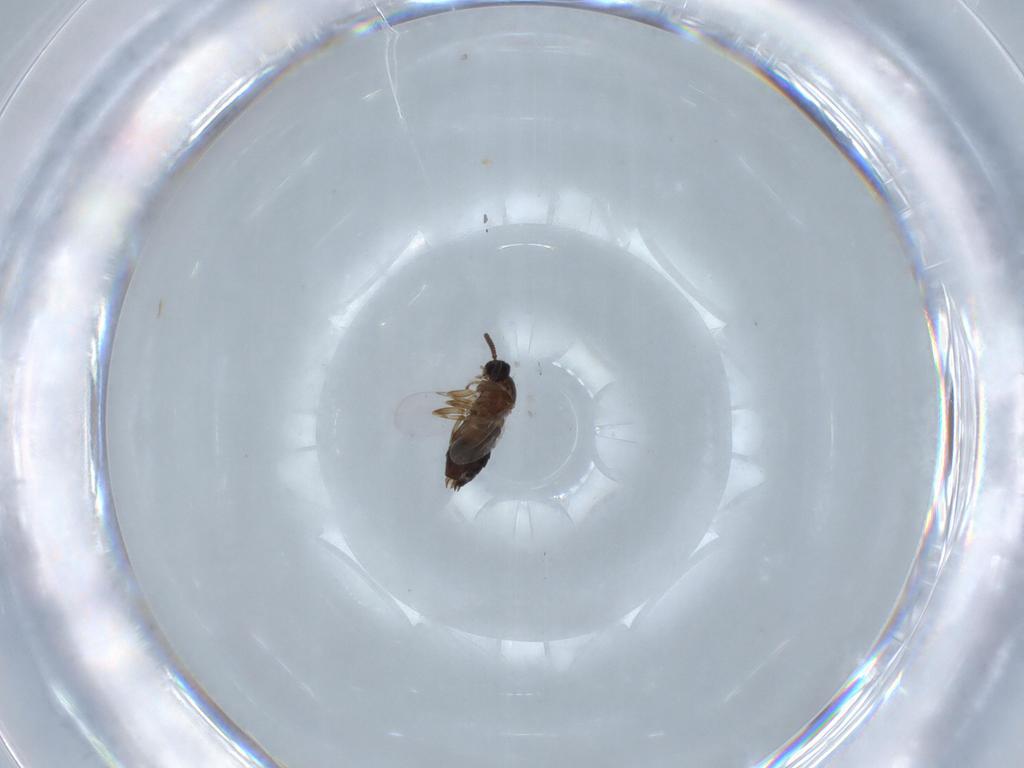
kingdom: Animalia
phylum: Arthropoda
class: Insecta
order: Diptera
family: Scatopsidae
